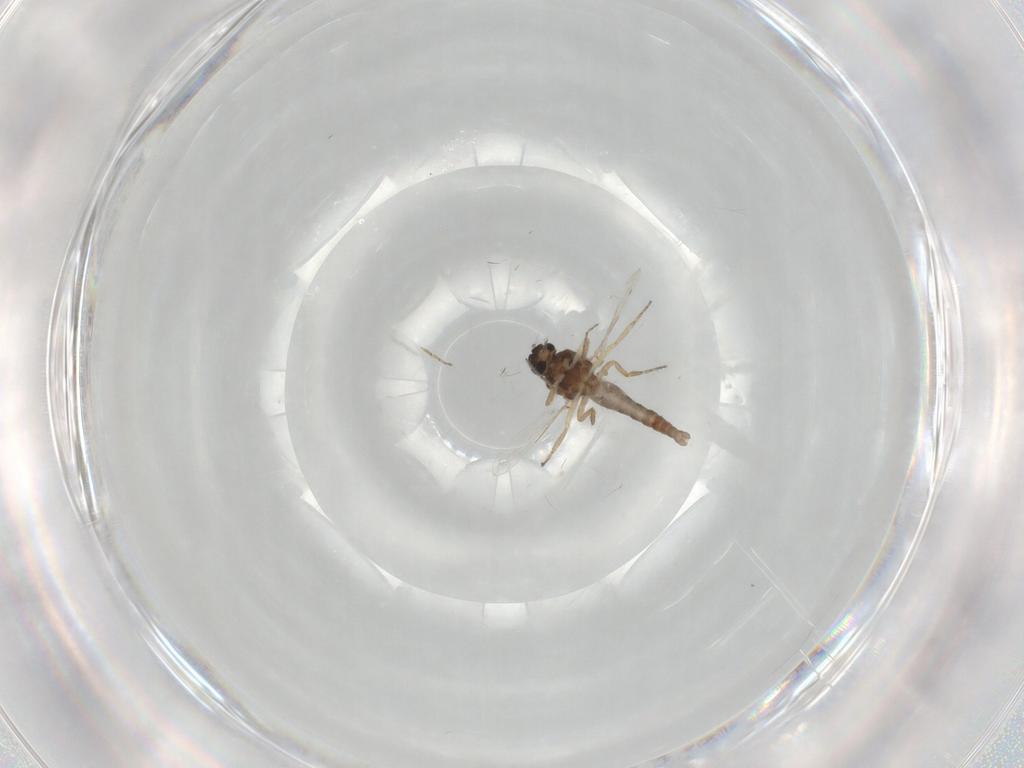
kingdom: Animalia
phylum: Arthropoda
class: Insecta
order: Diptera
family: Ceratopogonidae
